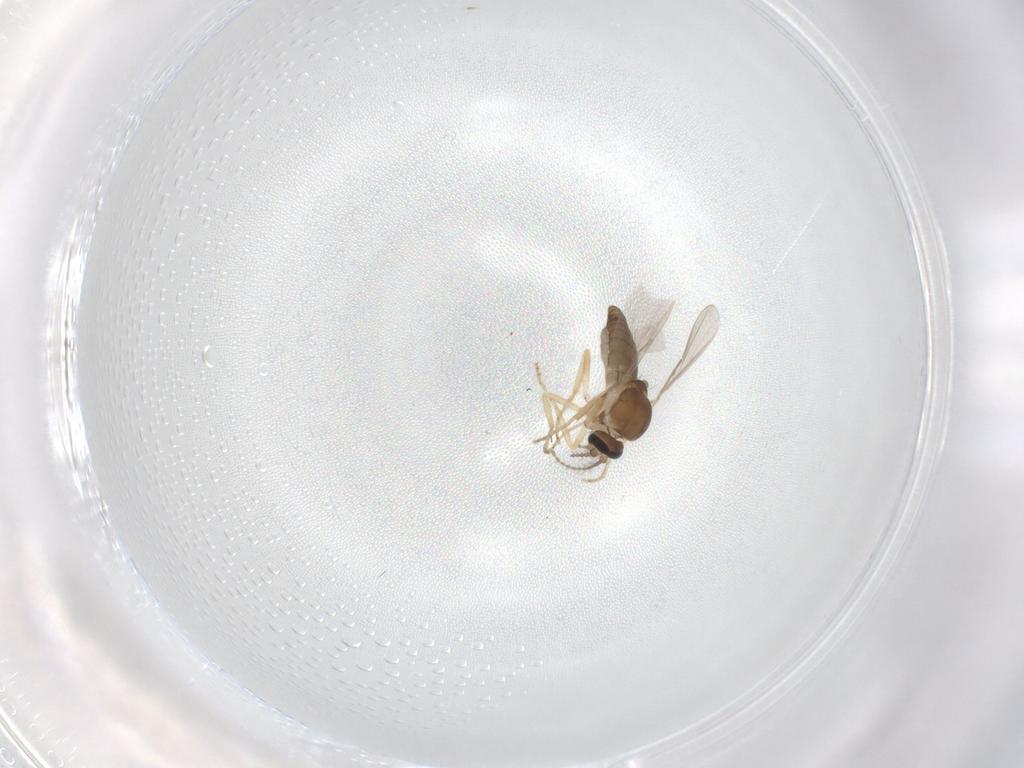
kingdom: Animalia
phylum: Arthropoda
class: Insecta
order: Diptera
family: Ceratopogonidae
